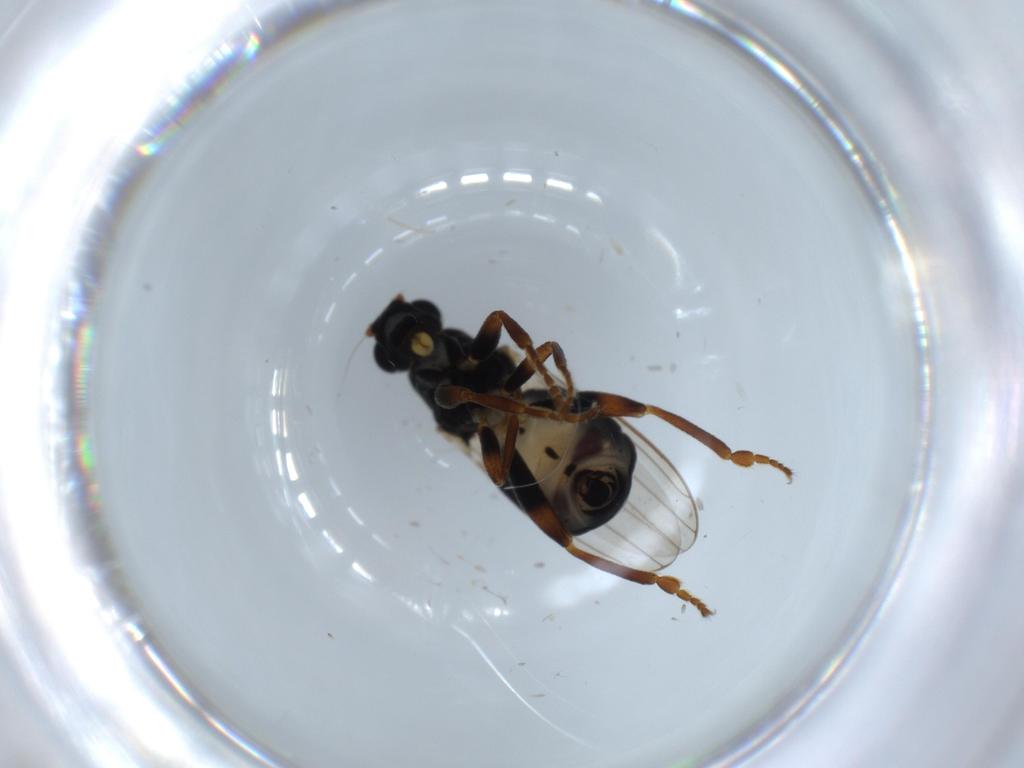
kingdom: Animalia
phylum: Arthropoda
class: Insecta
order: Diptera
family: Sphaeroceridae
